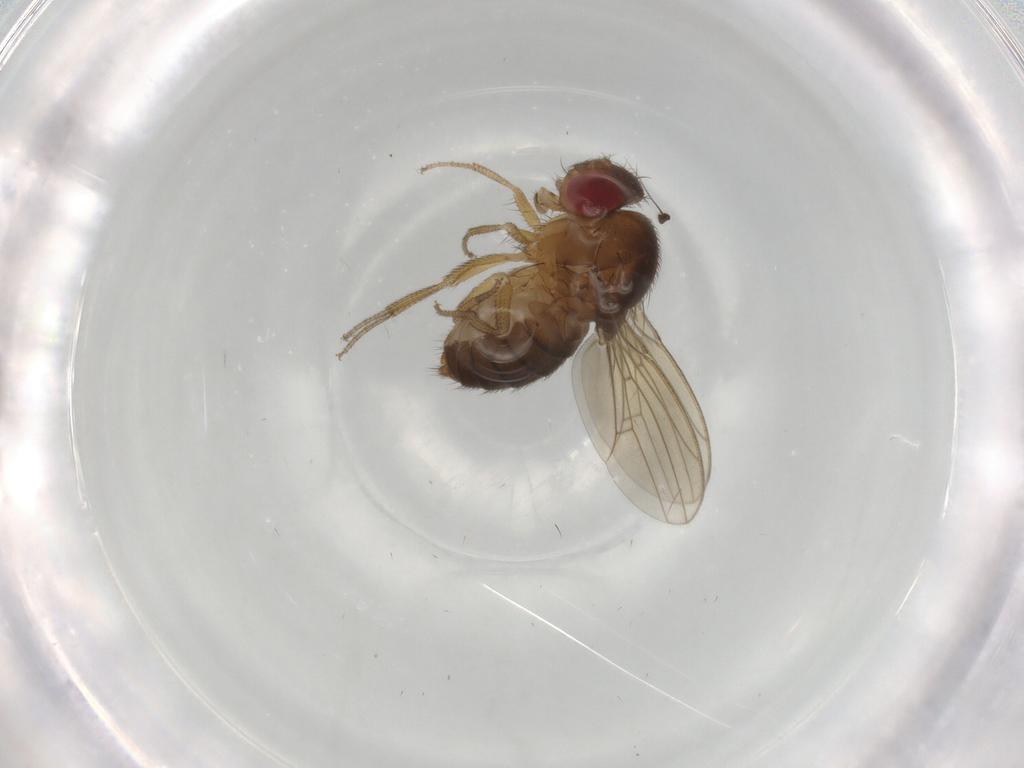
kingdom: Animalia
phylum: Arthropoda
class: Insecta
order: Diptera
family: Drosophilidae
